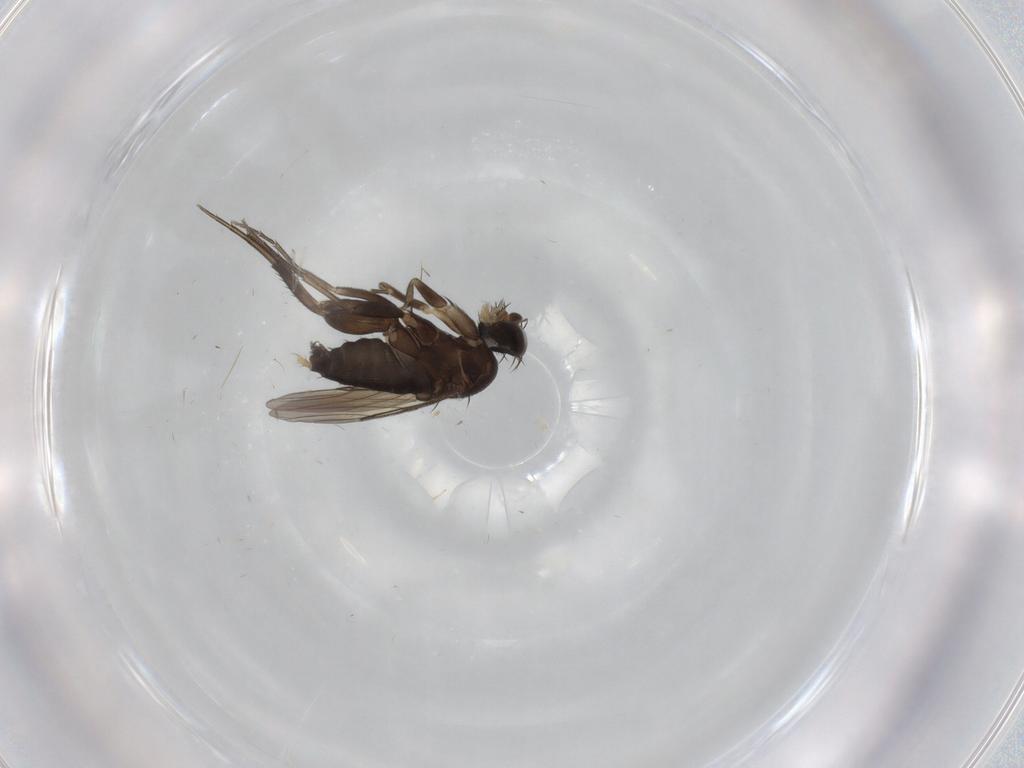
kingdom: Animalia
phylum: Arthropoda
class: Insecta
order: Diptera
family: Phoridae
